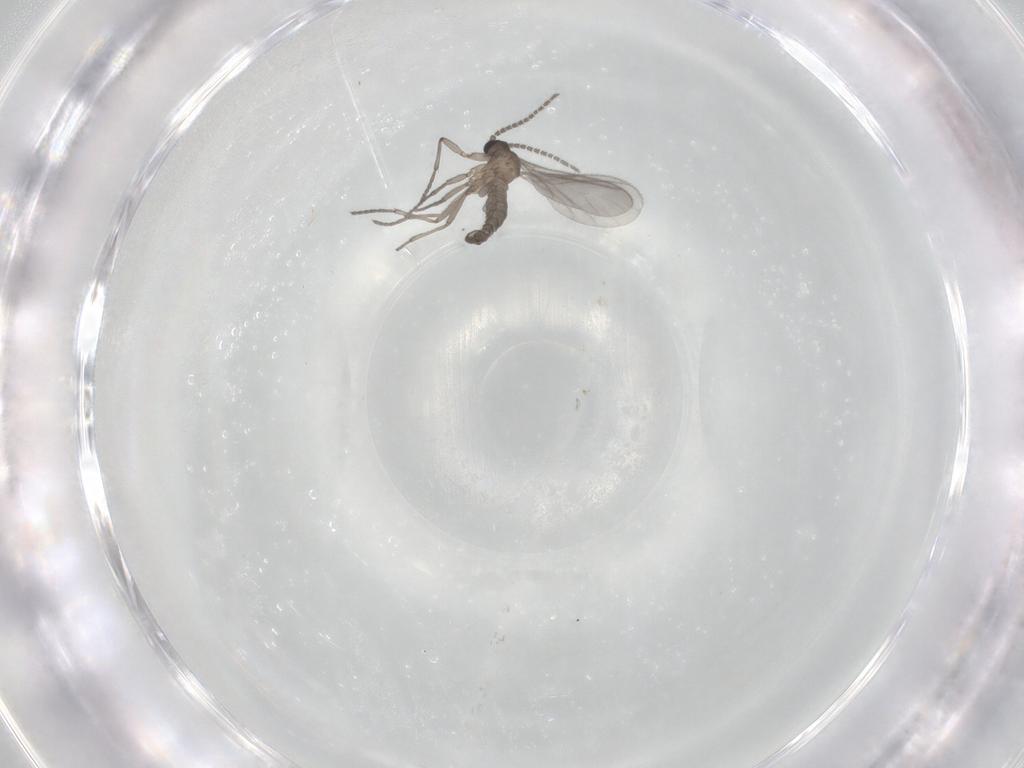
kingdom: Animalia
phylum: Arthropoda
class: Insecta
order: Diptera
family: Sciaridae
